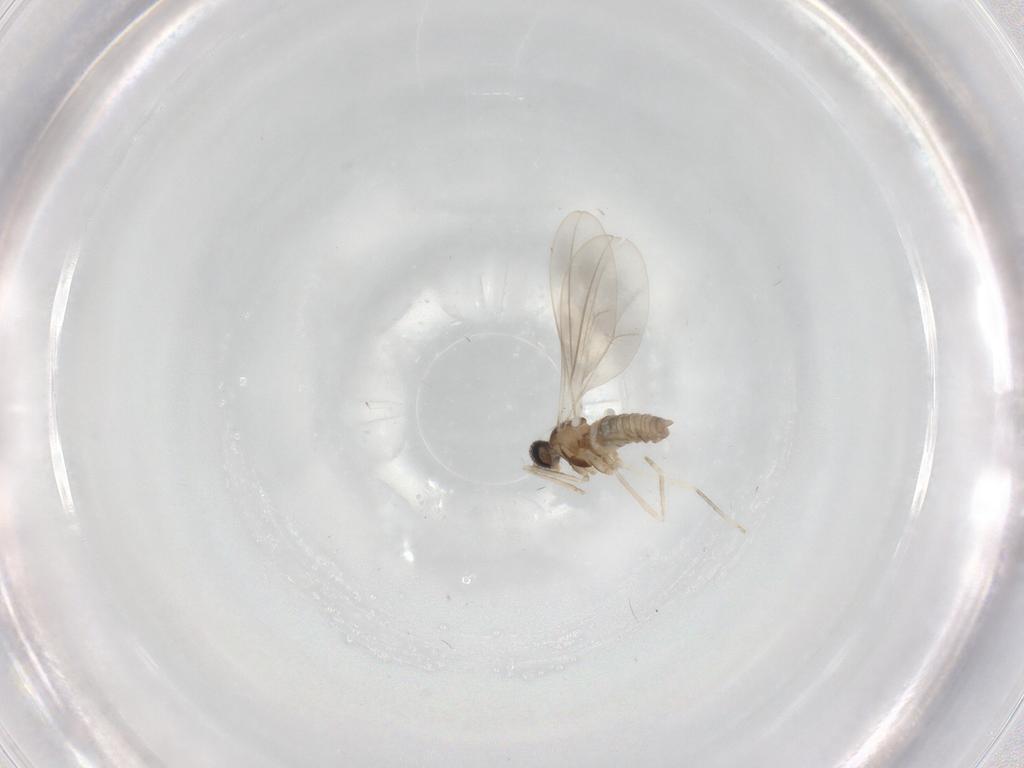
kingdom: Animalia
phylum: Arthropoda
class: Insecta
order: Diptera
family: Cecidomyiidae
